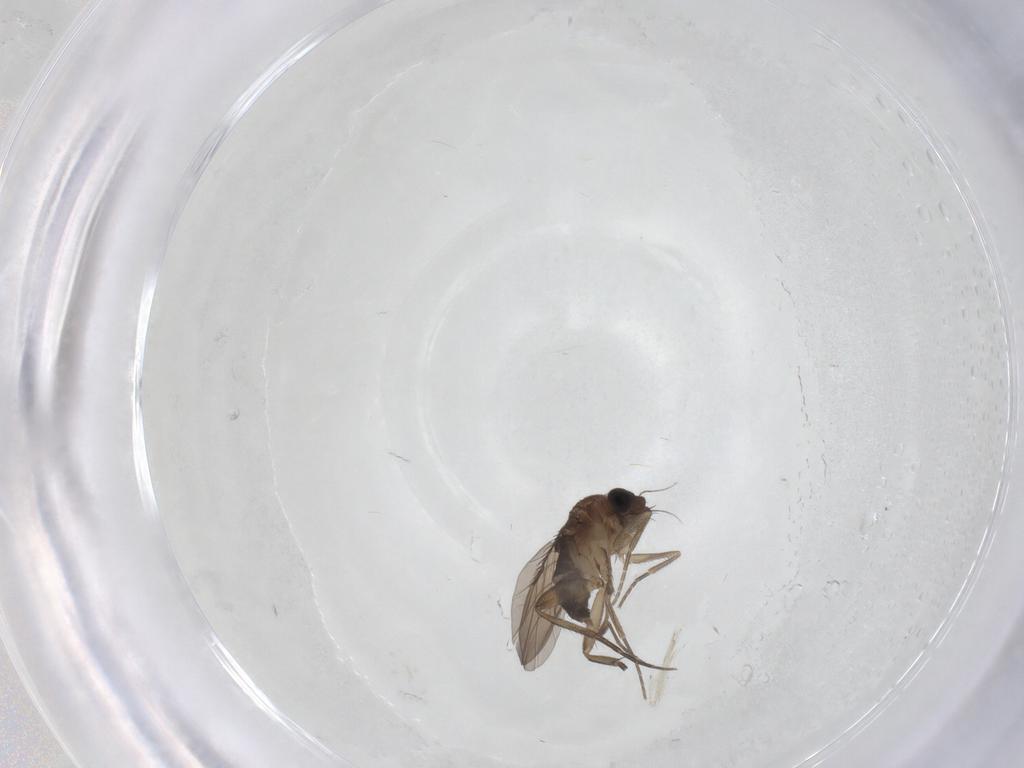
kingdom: Animalia
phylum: Arthropoda
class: Insecta
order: Diptera
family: Phoridae
